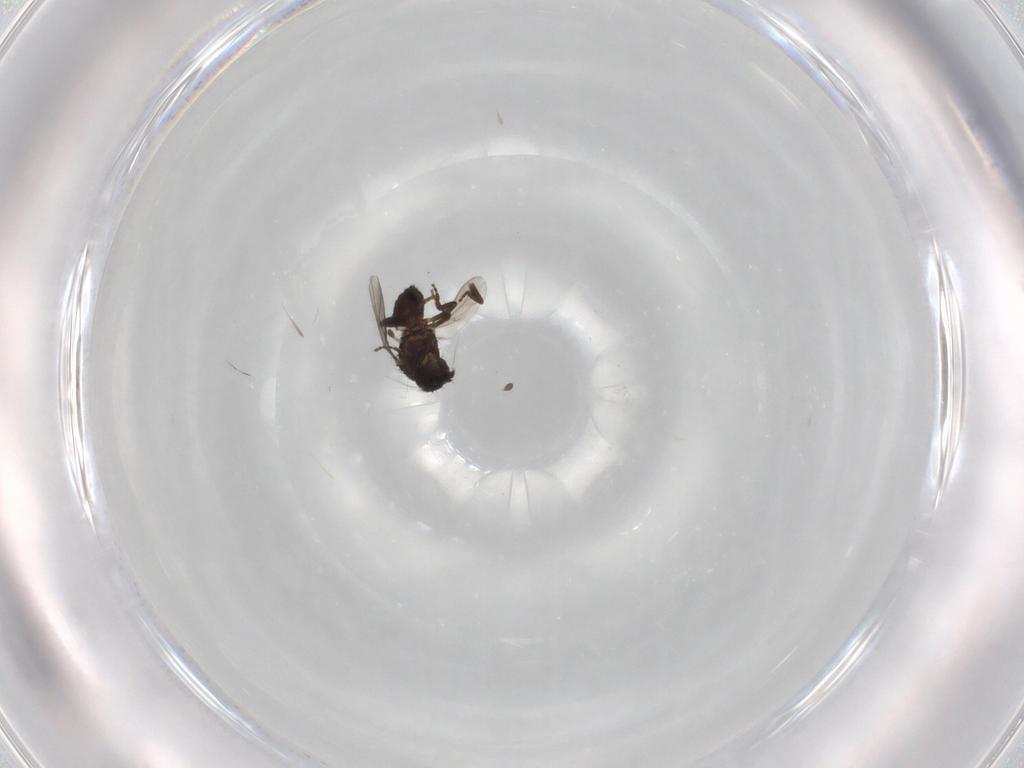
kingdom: Animalia
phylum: Arthropoda
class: Insecta
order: Diptera
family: Sphaeroceridae
